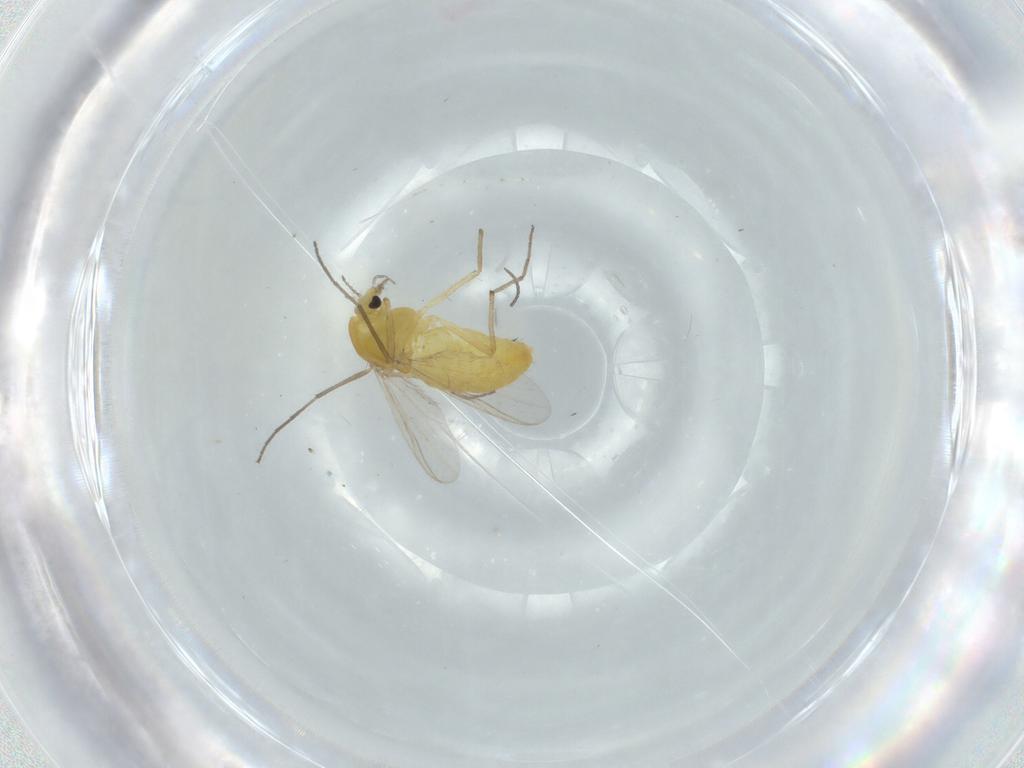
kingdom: Animalia
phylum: Arthropoda
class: Insecta
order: Diptera
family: Chironomidae
